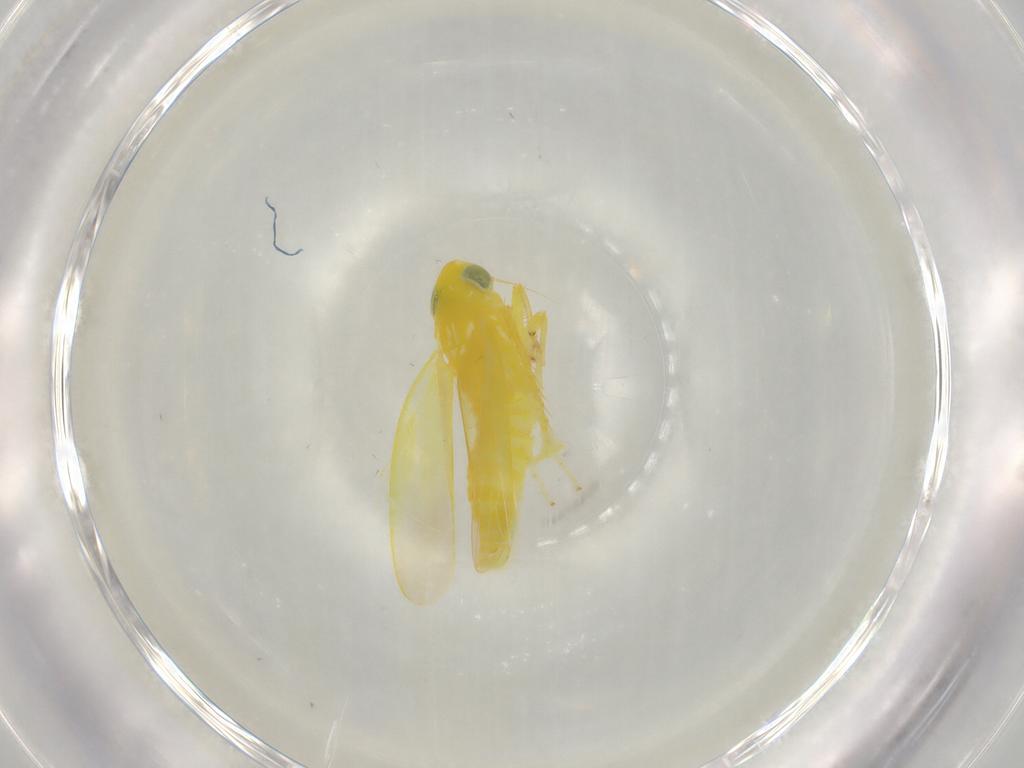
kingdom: Animalia
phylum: Arthropoda
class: Insecta
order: Hemiptera
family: Cicadellidae
